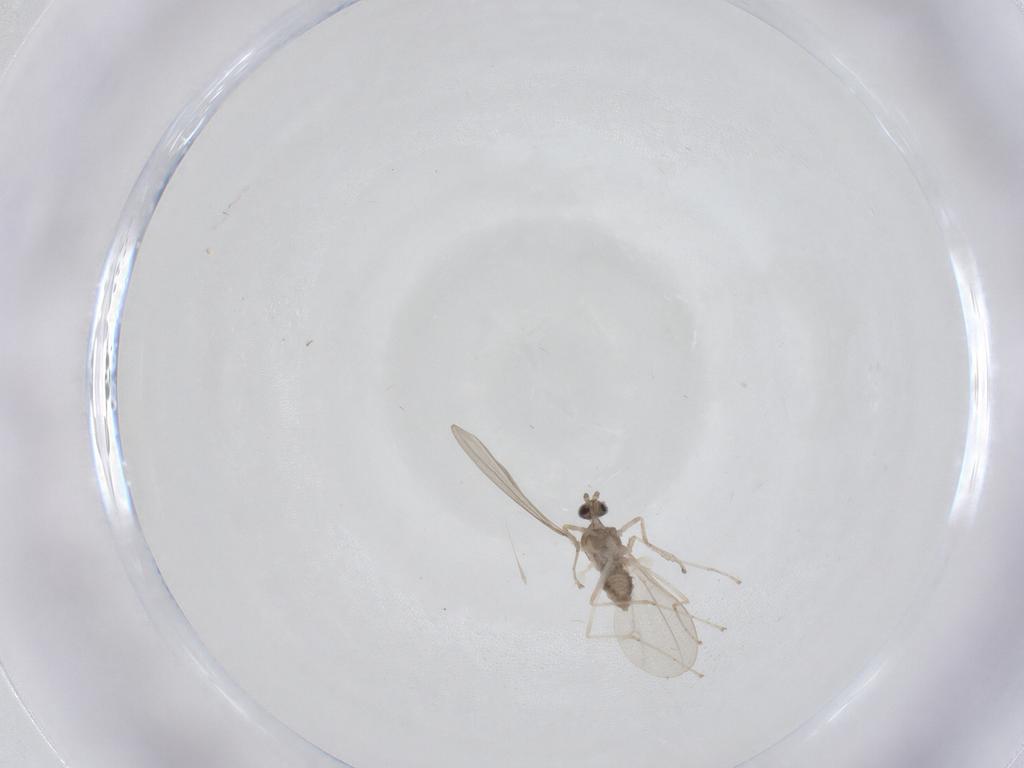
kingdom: Animalia
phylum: Arthropoda
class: Insecta
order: Diptera
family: Cecidomyiidae
